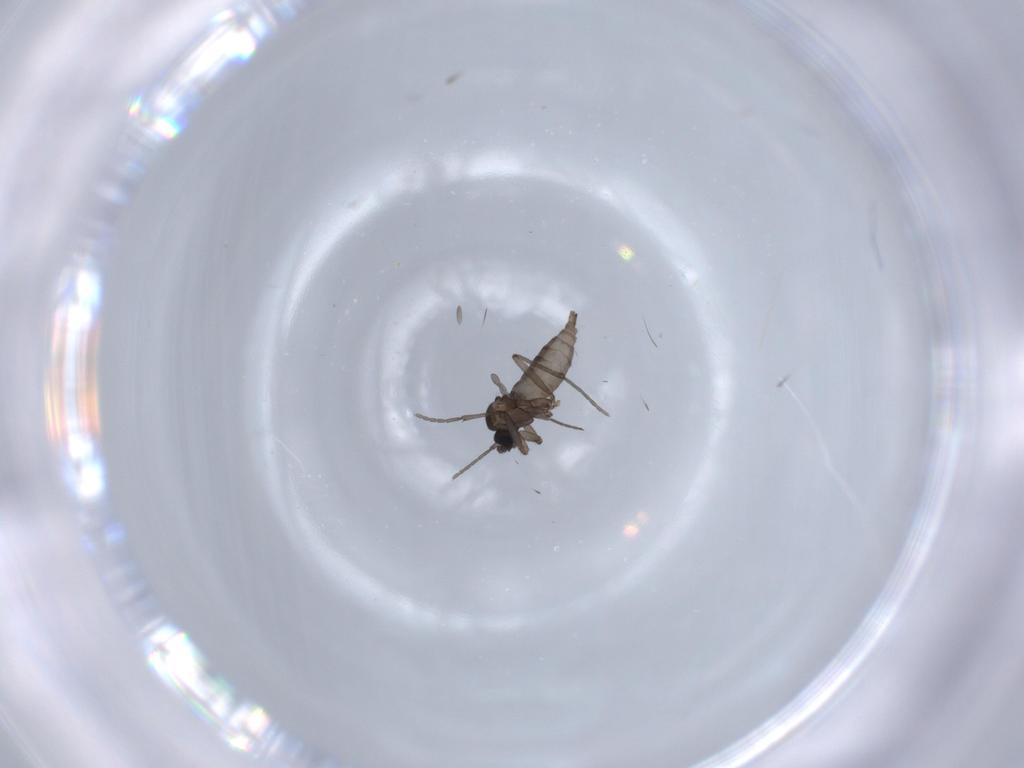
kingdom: Animalia
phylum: Arthropoda
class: Insecta
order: Diptera
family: Sciaridae
